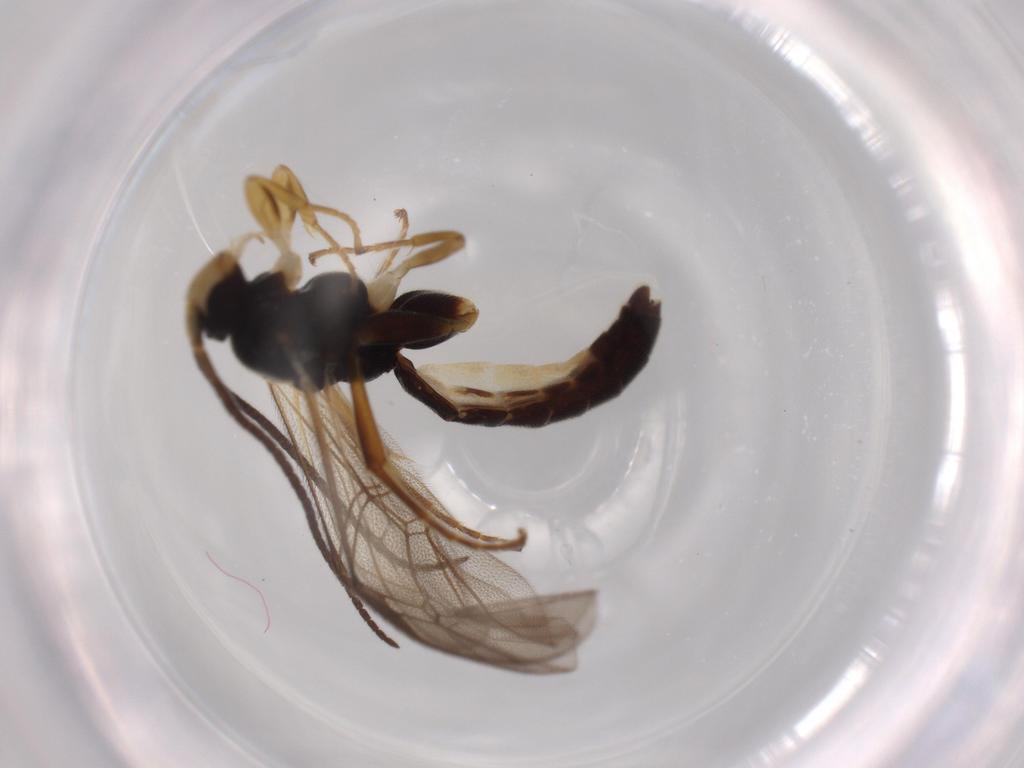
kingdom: Animalia
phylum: Arthropoda
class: Insecta
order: Hymenoptera
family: Ichneumonidae
